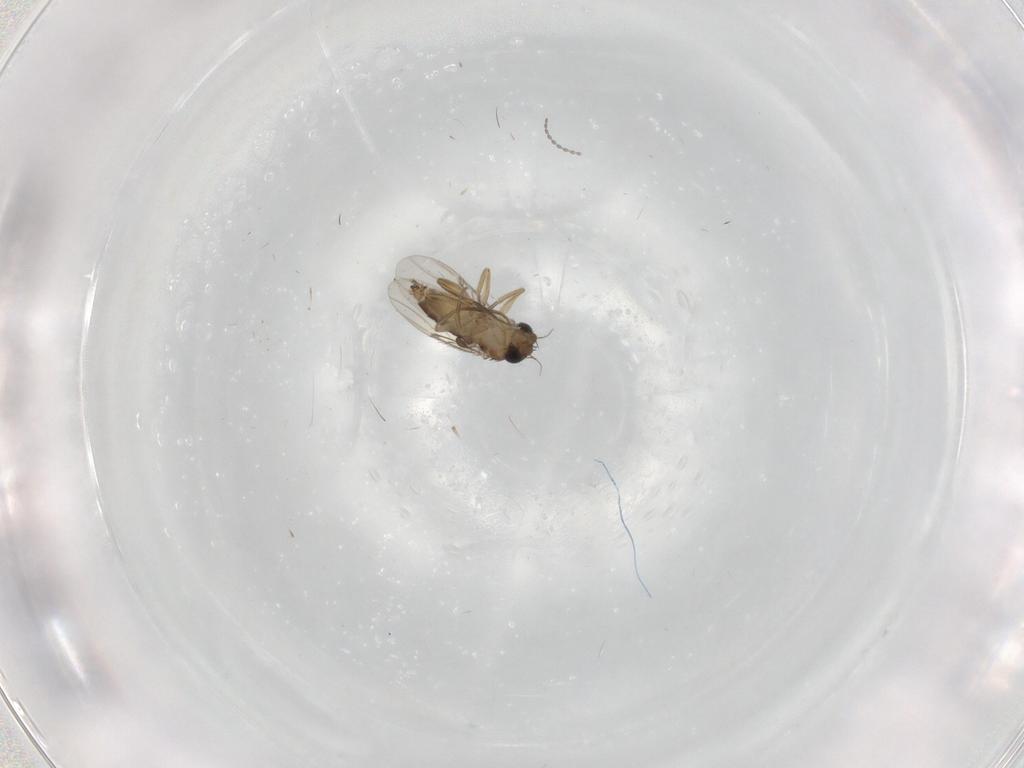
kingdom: Animalia
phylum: Arthropoda
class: Insecta
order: Diptera
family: Phoridae
